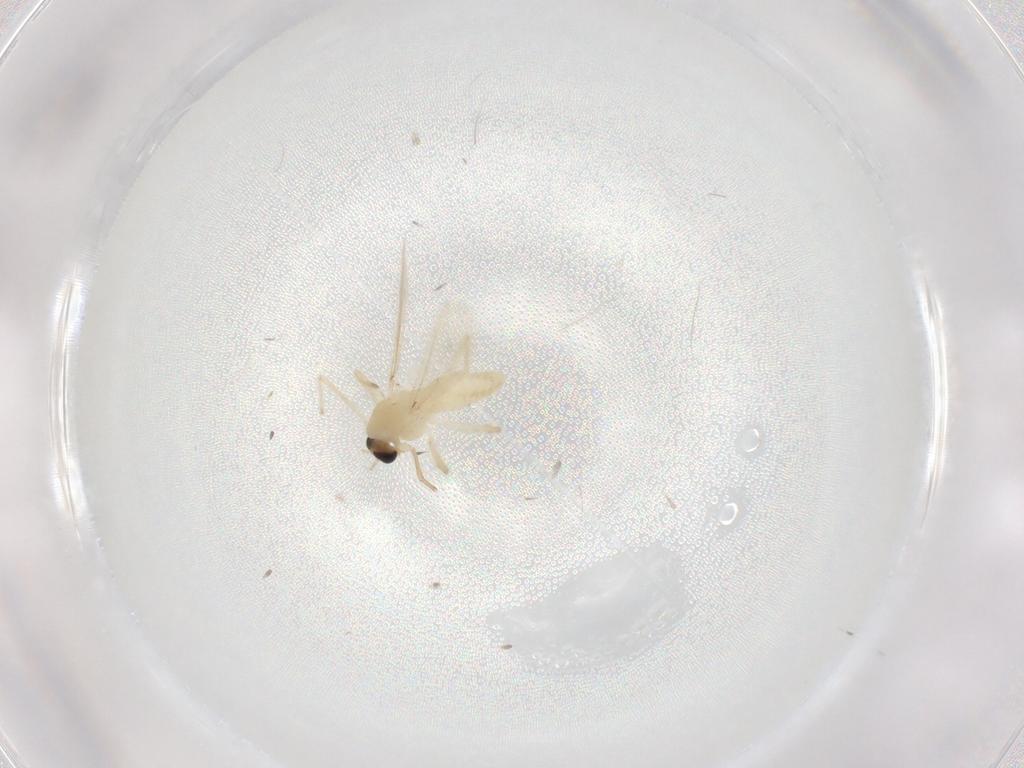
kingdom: Animalia
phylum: Arthropoda
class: Insecta
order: Diptera
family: Chironomidae
